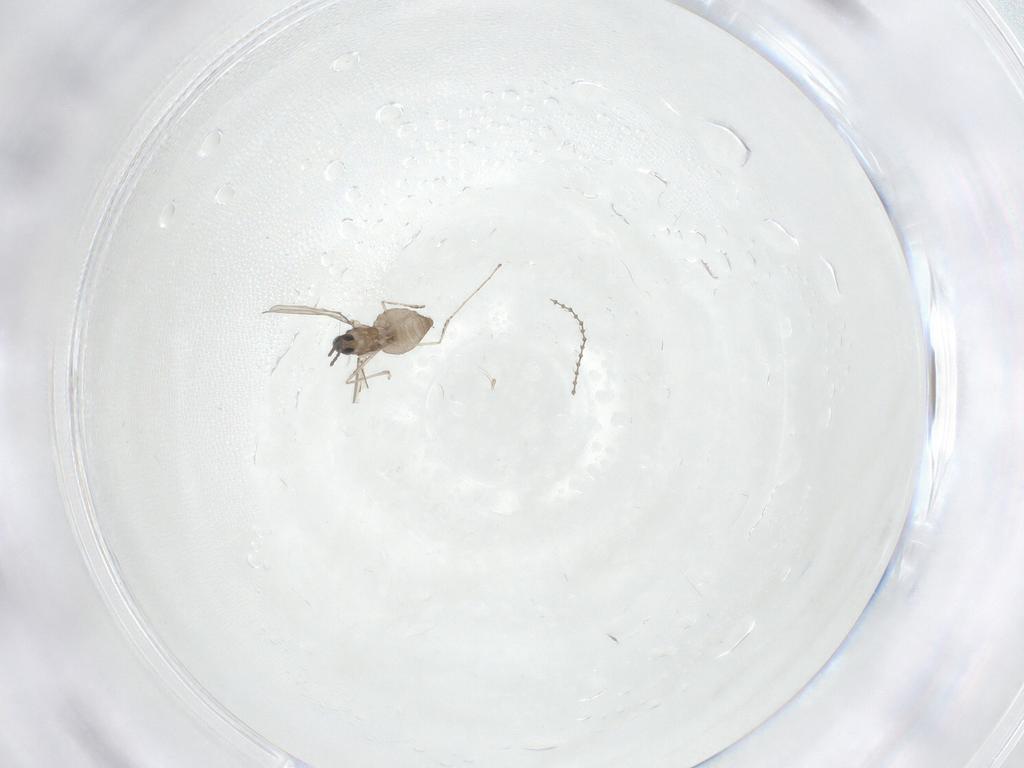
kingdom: Animalia
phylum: Arthropoda
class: Insecta
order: Diptera
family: Cecidomyiidae
